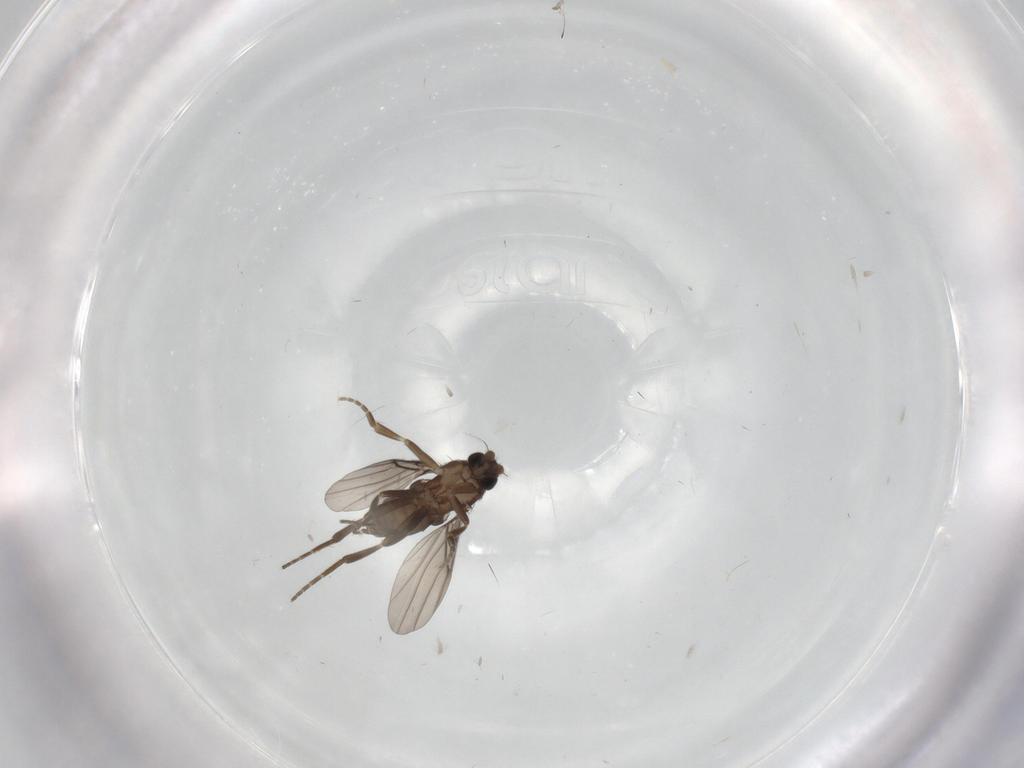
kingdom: Animalia
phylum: Arthropoda
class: Insecta
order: Diptera
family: Phoridae
